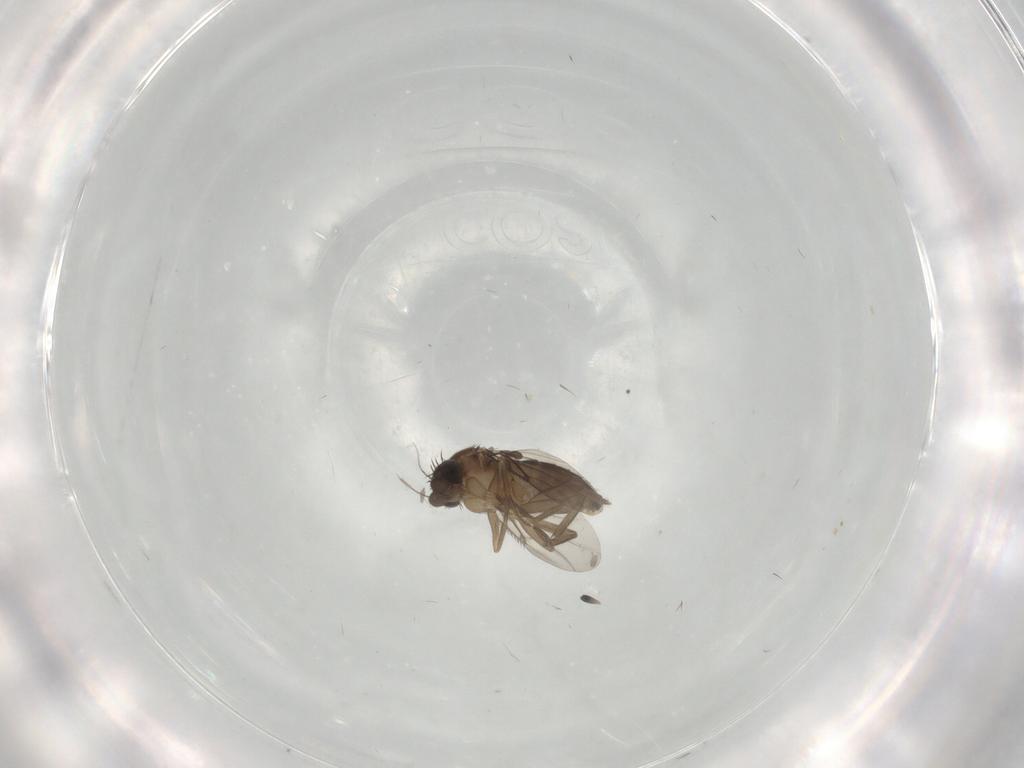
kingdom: Animalia
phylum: Arthropoda
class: Insecta
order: Diptera
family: Phoridae
